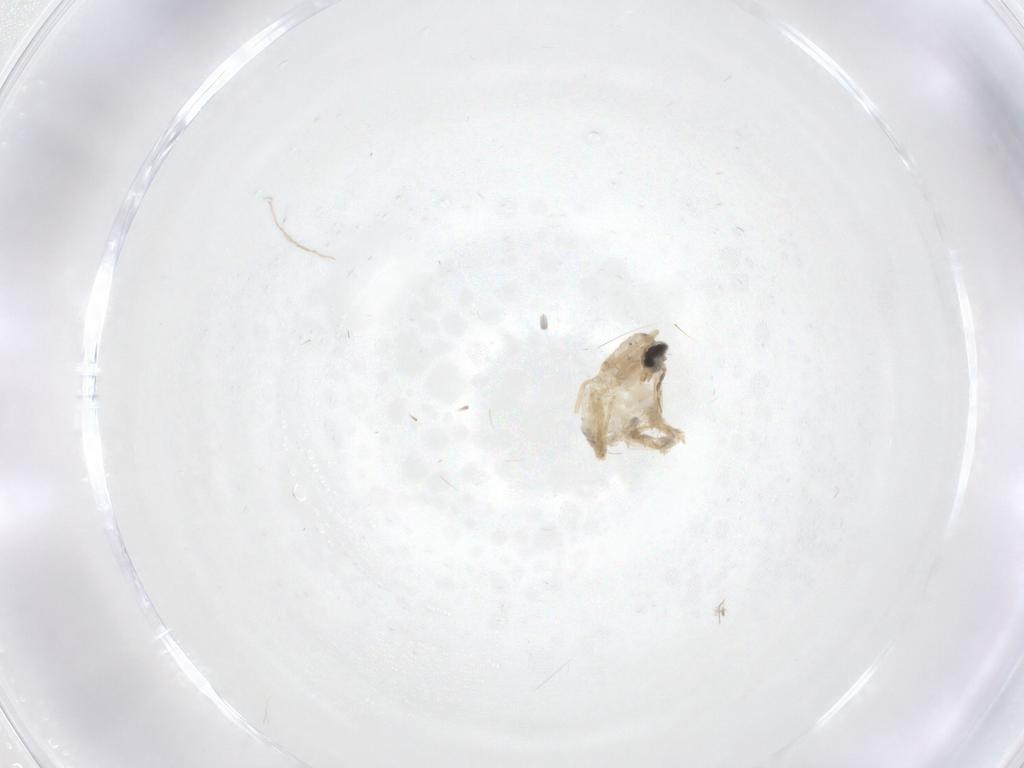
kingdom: Animalia
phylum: Arthropoda
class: Insecta
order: Diptera
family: Cecidomyiidae
